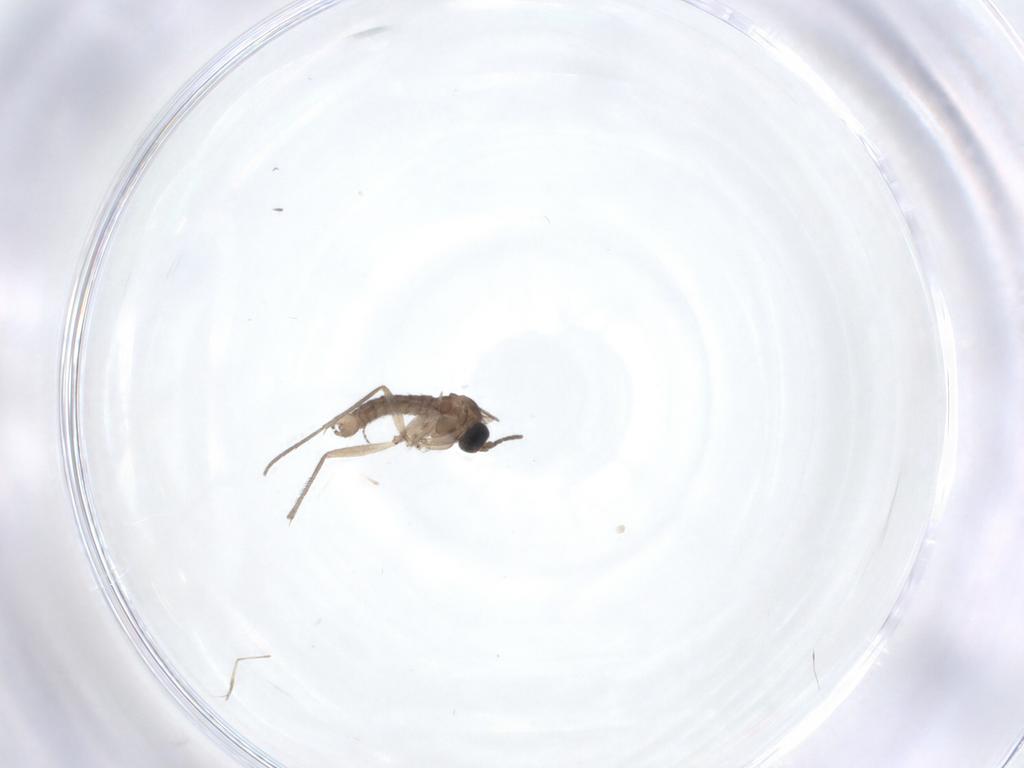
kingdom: Animalia
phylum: Arthropoda
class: Insecta
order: Diptera
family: Sciaridae
